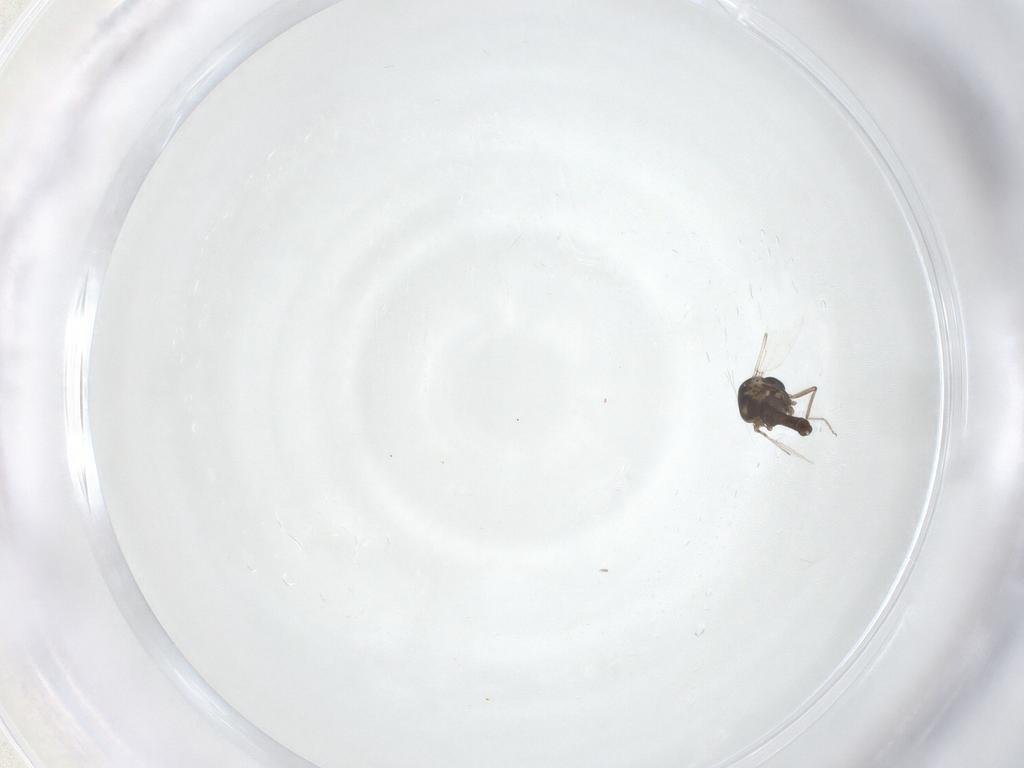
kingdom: Animalia
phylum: Arthropoda
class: Insecta
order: Diptera
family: Ceratopogonidae
